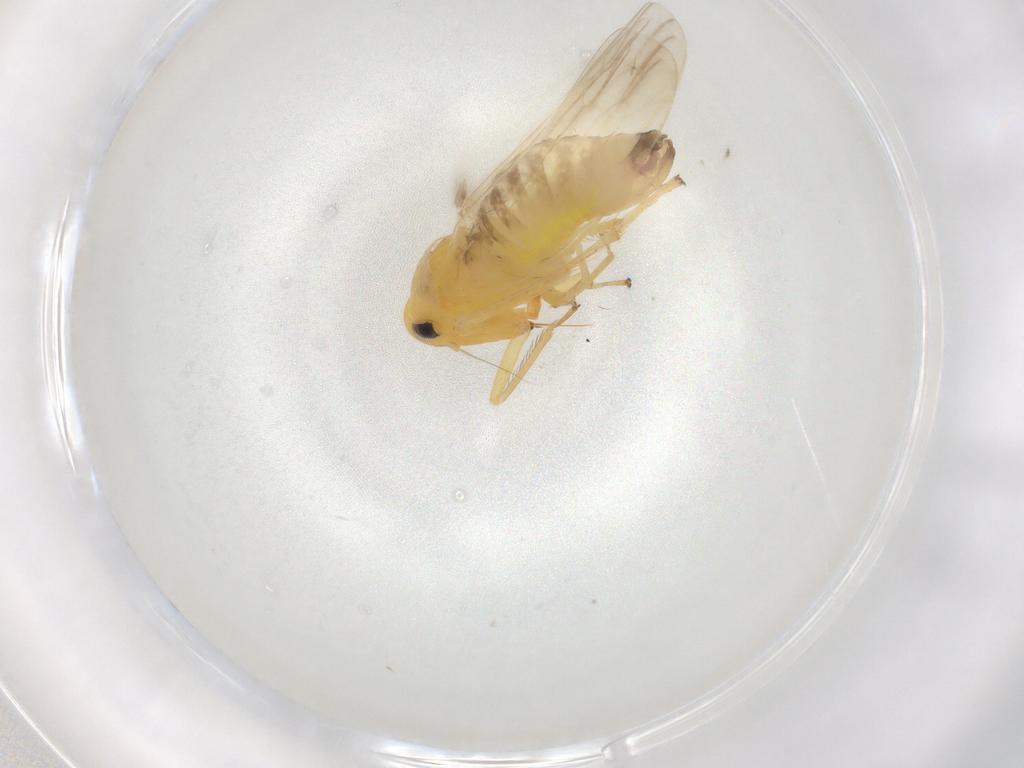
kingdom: Animalia
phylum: Arthropoda
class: Insecta
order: Hemiptera
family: Cicadellidae
